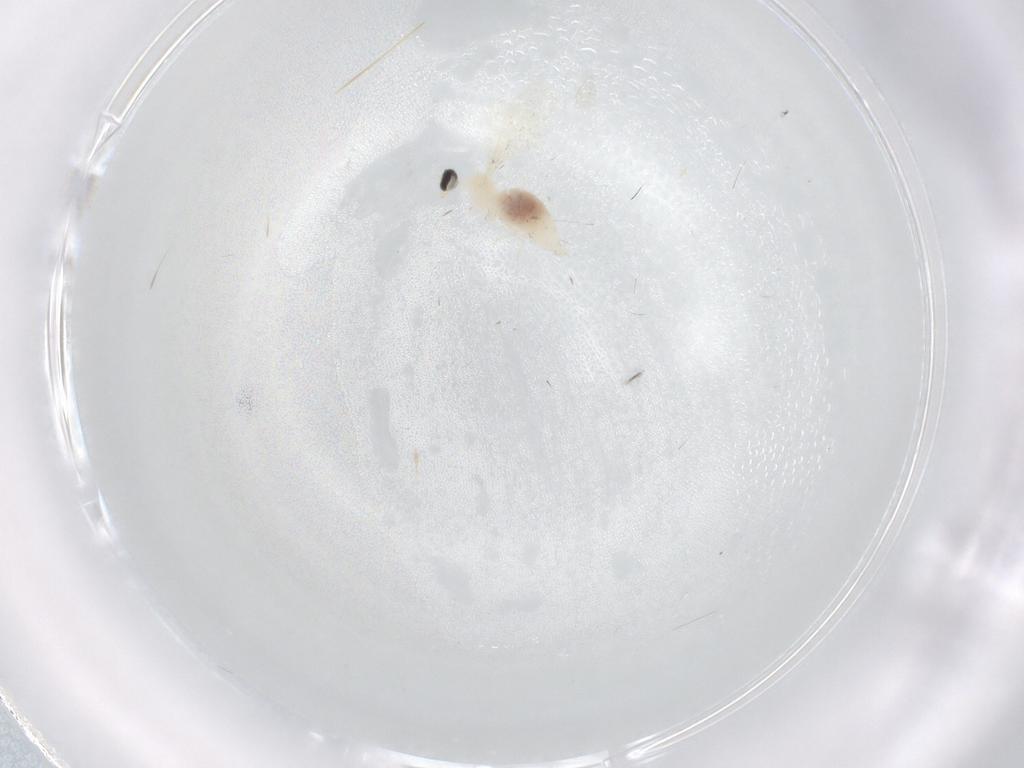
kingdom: Animalia
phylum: Arthropoda
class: Insecta
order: Diptera
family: Cecidomyiidae
